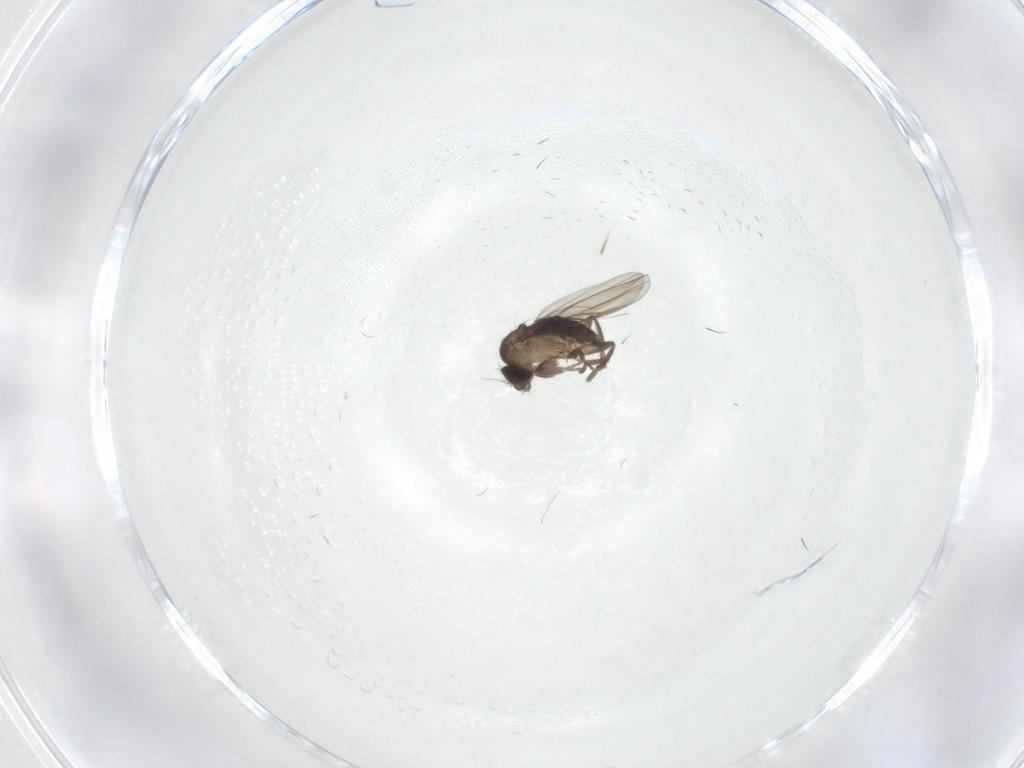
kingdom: Animalia
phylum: Arthropoda
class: Insecta
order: Diptera
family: Phoridae
